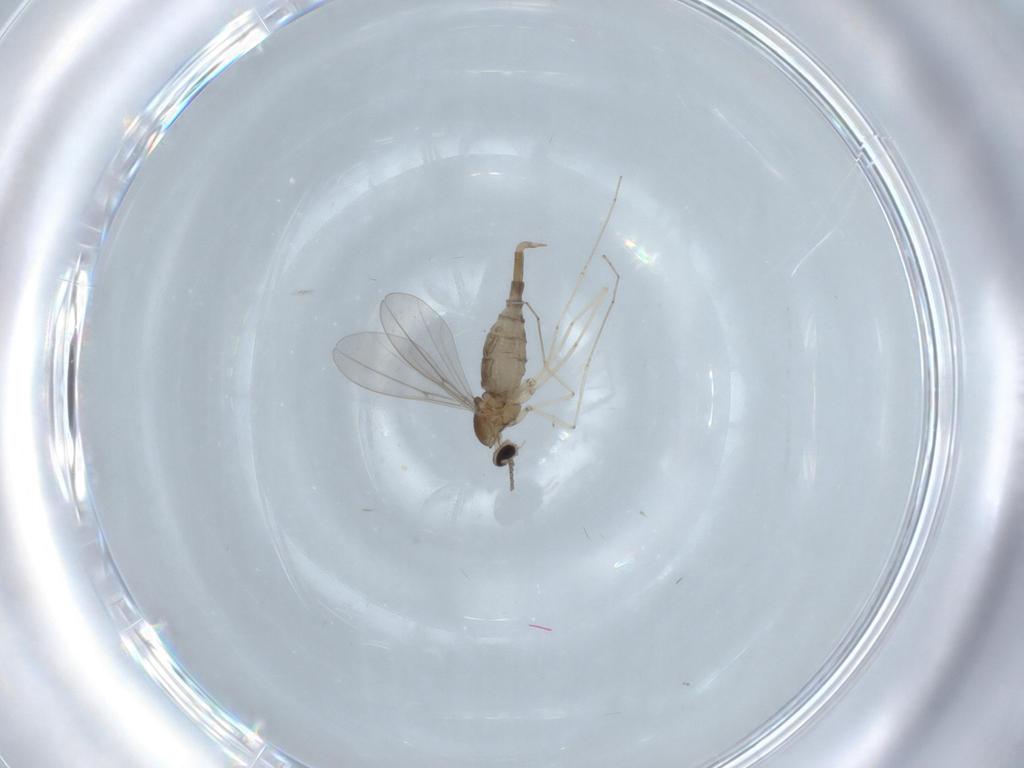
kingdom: Animalia
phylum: Arthropoda
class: Insecta
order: Diptera
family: Cecidomyiidae
